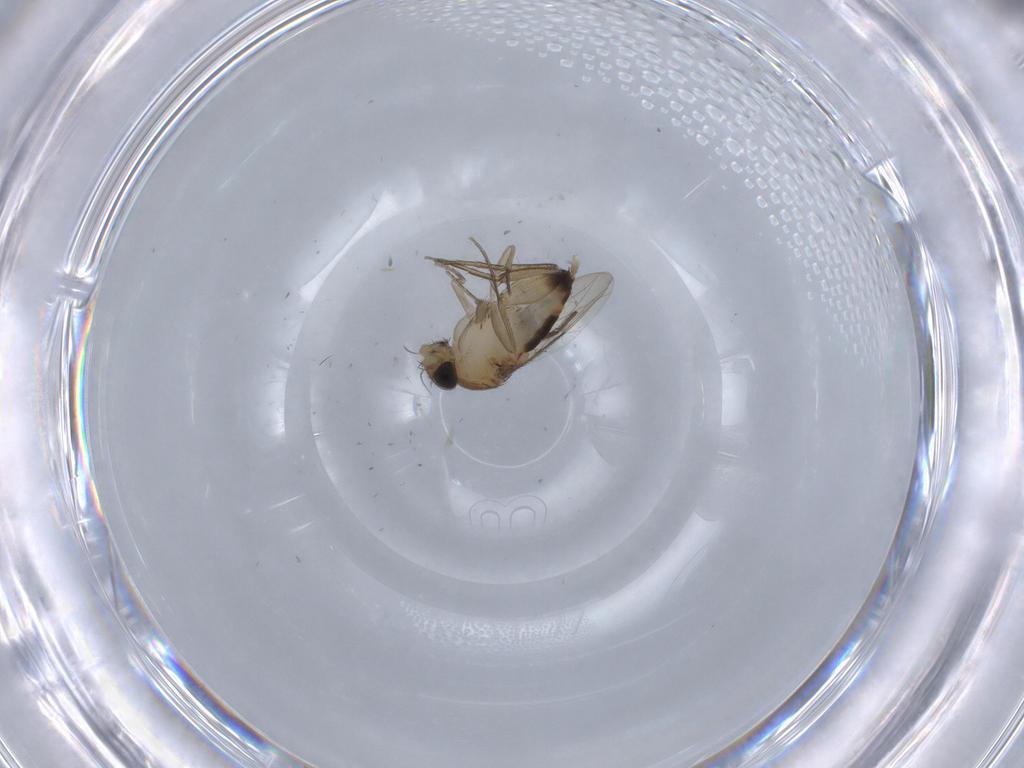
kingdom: Animalia
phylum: Arthropoda
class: Insecta
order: Diptera
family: Phoridae
